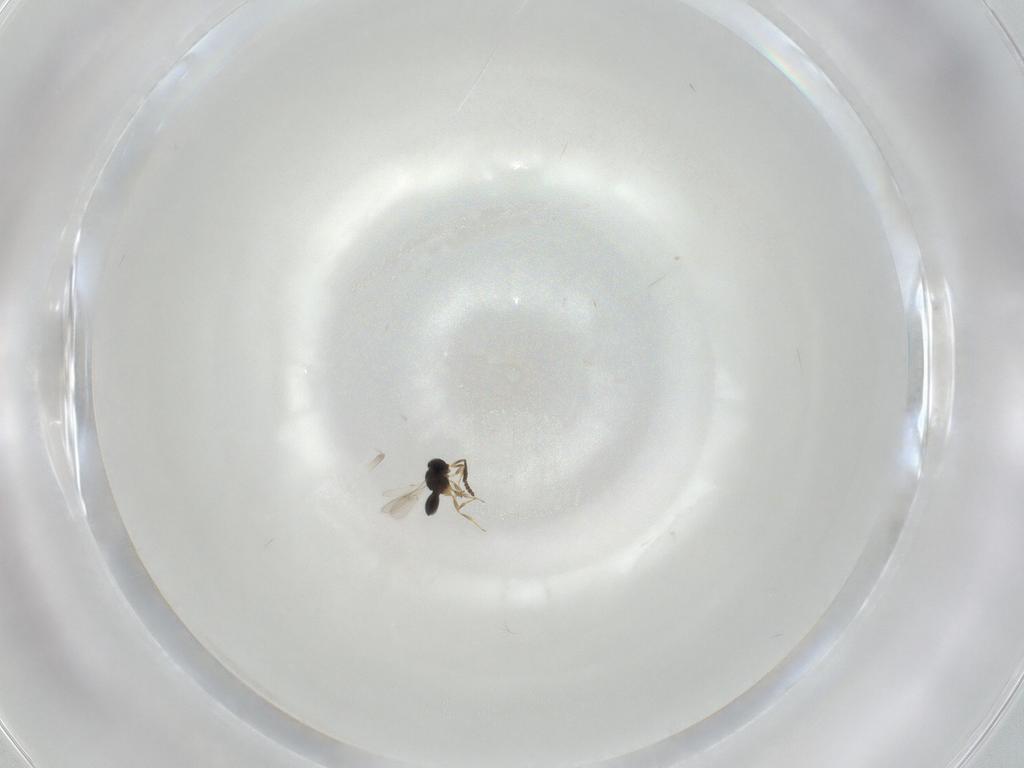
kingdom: Animalia
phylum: Arthropoda
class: Insecta
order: Hymenoptera
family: Scelionidae
